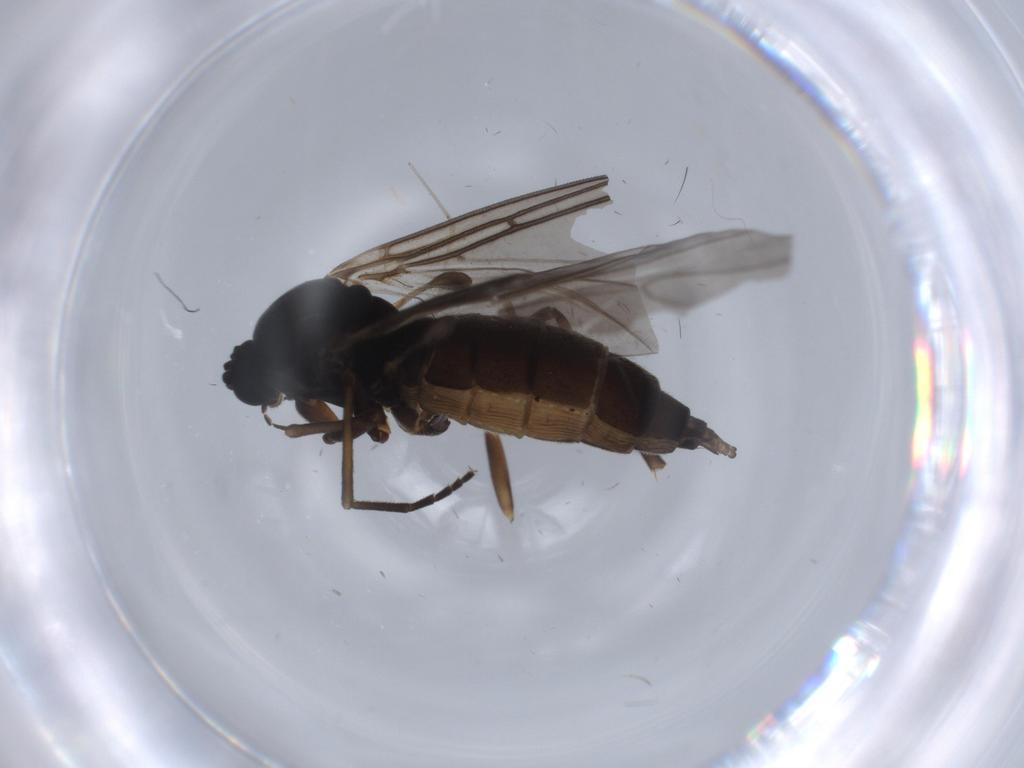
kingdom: Animalia
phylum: Arthropoda
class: Insecta
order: Diptera
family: Sciaridae
